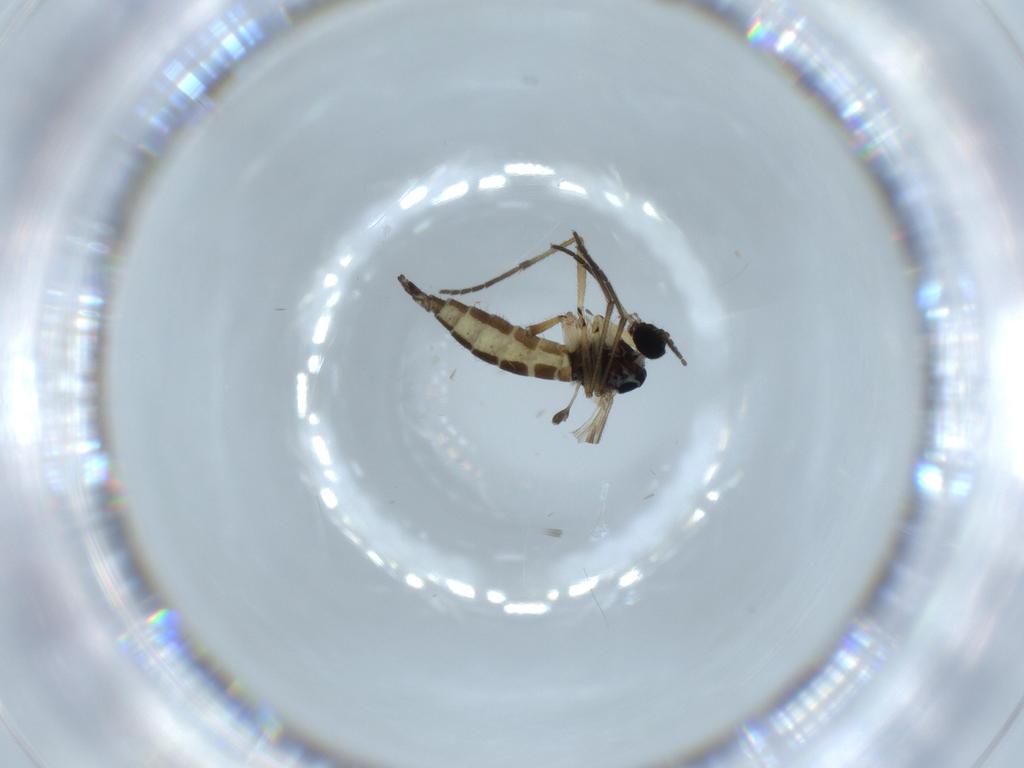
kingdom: Animalia
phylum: Arthropoda
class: Insecta
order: Diptera
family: Sciaridae
